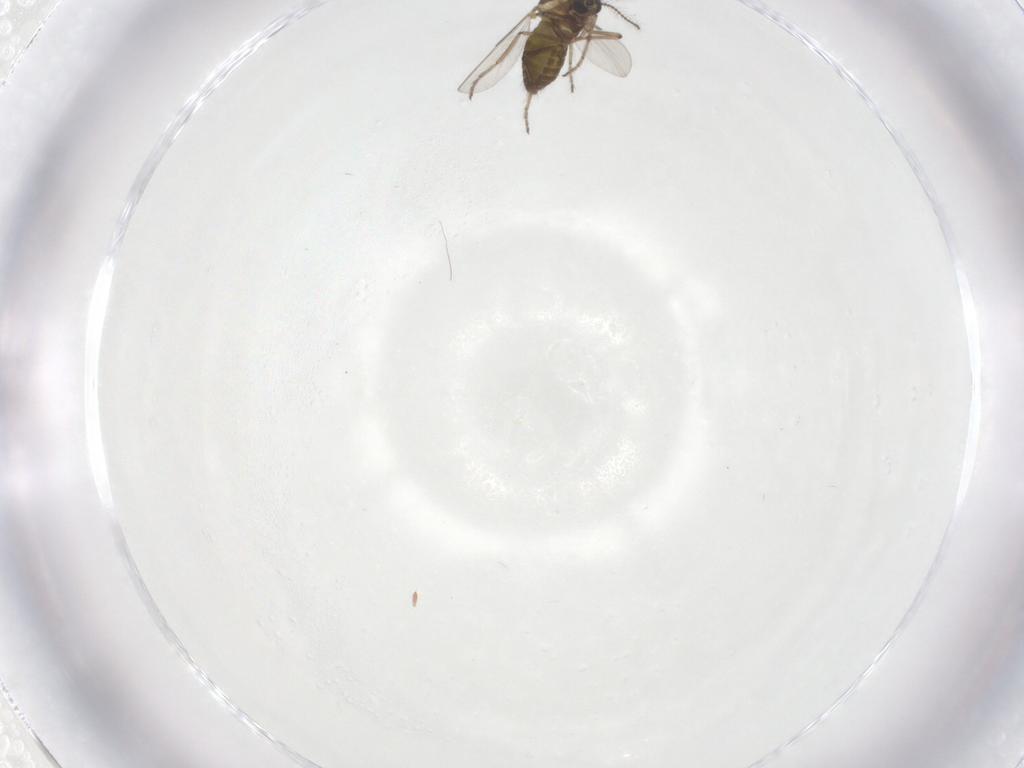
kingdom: Animalia
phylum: Arthropoda
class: Insecta
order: Diptera
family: Ceratopogonidae
